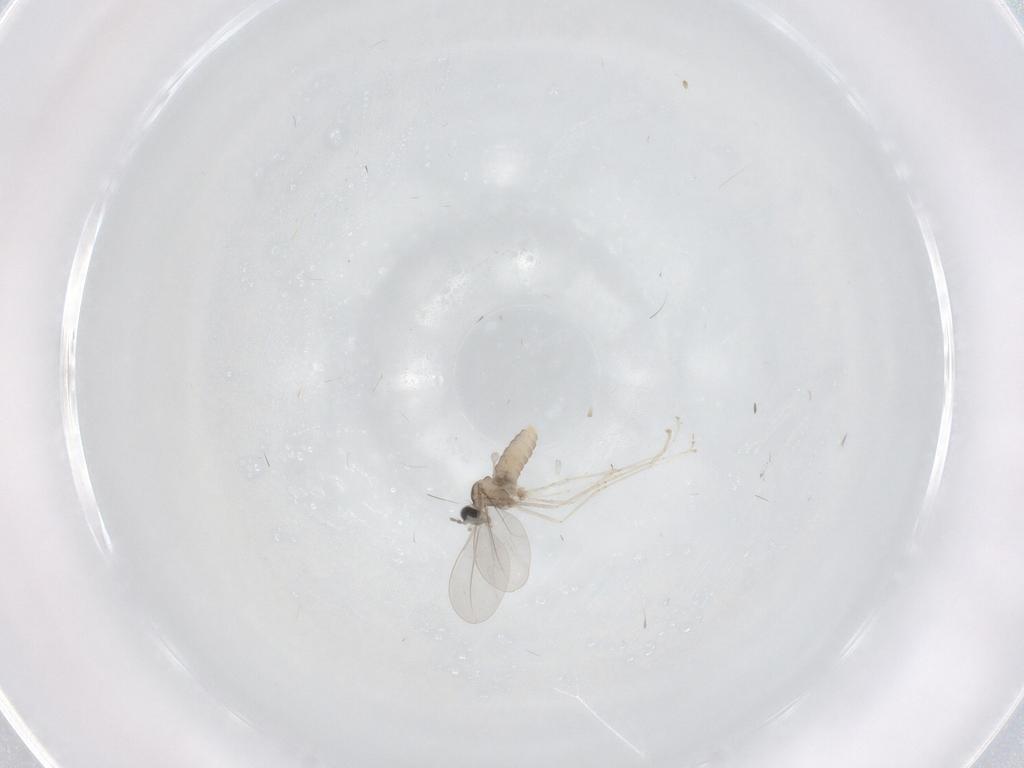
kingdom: Animalia
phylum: Arthropoda
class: Insecta
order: Diptera
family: Cecidomyiidae
